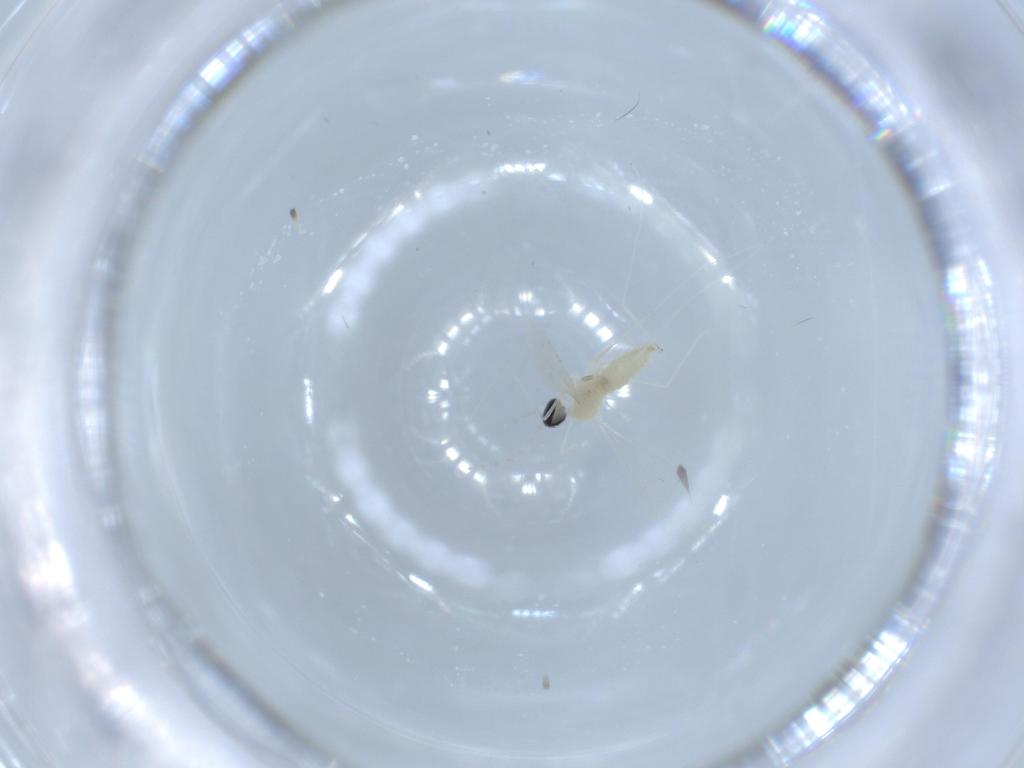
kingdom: Animalia
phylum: Arthropoda
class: Insecta
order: Diptera
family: Cecidomyiidae
